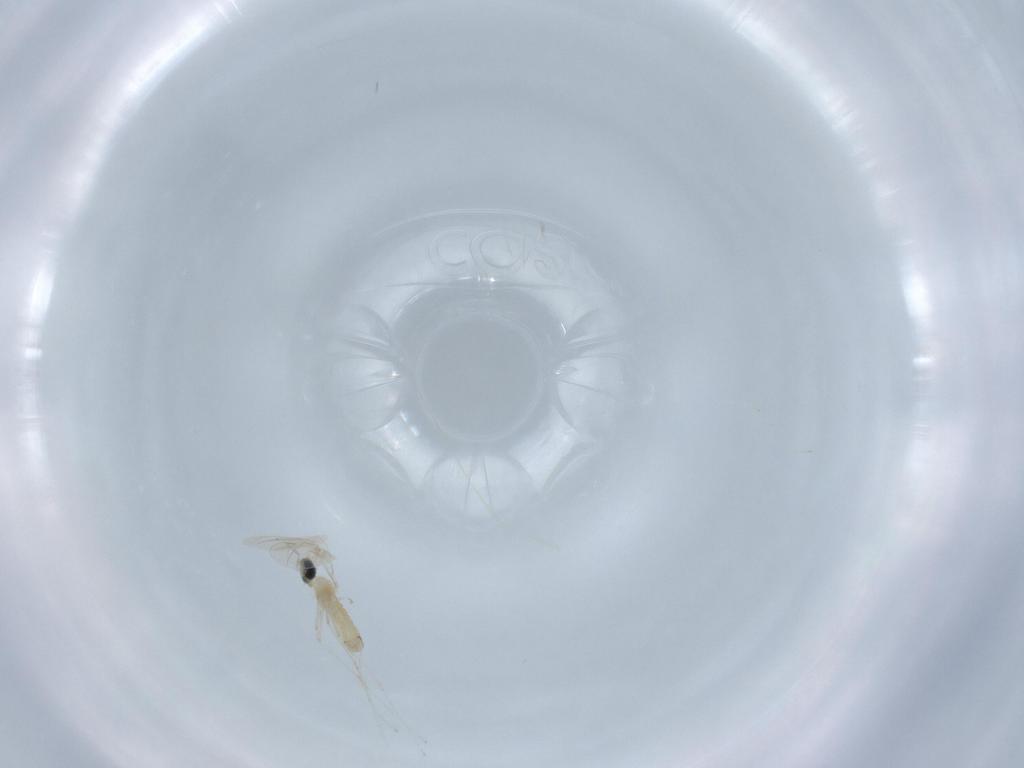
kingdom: Animalia
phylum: Arthropoda
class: Insecta
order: Diptera
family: Cecidomyiidae
